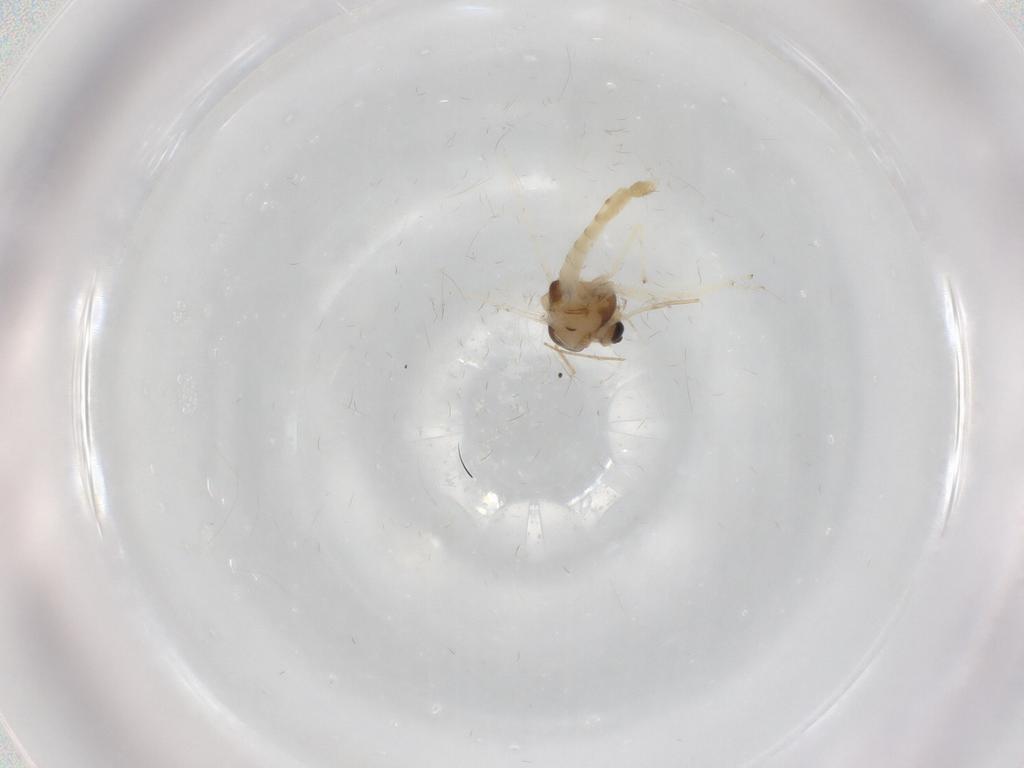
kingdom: Animalia
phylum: Arthropoda
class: Insecta
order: Diptera
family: Chironomidae
